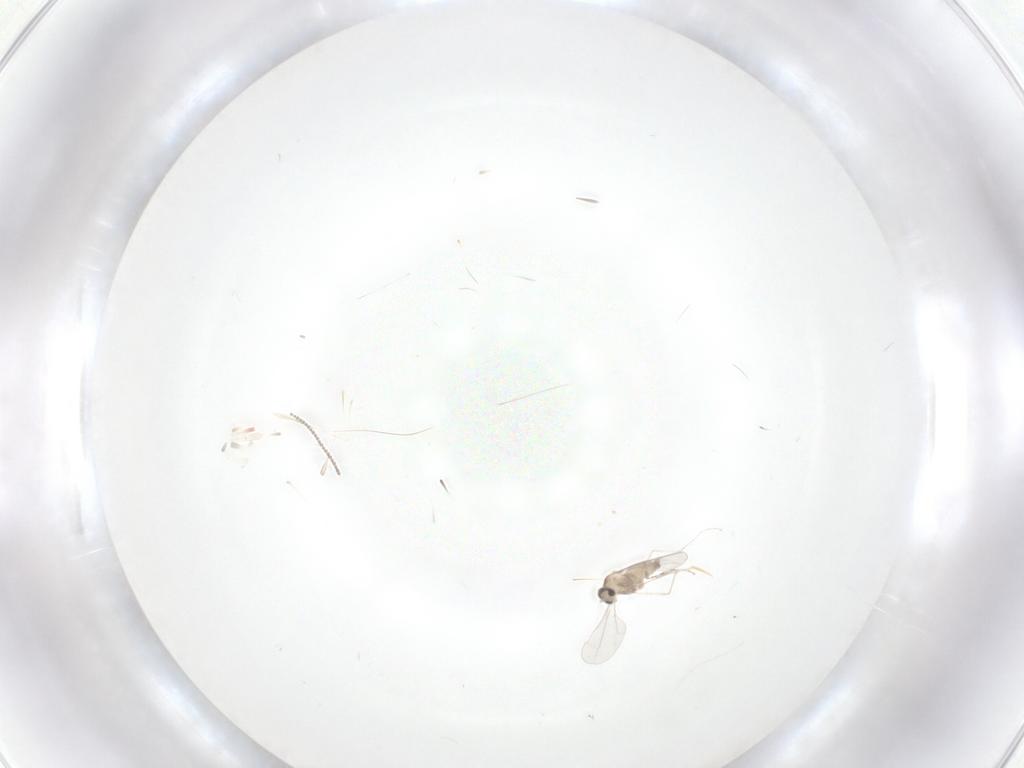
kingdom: Animalia
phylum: Arthropoda
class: Insecta
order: Diptera
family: Cecidomyiidae
